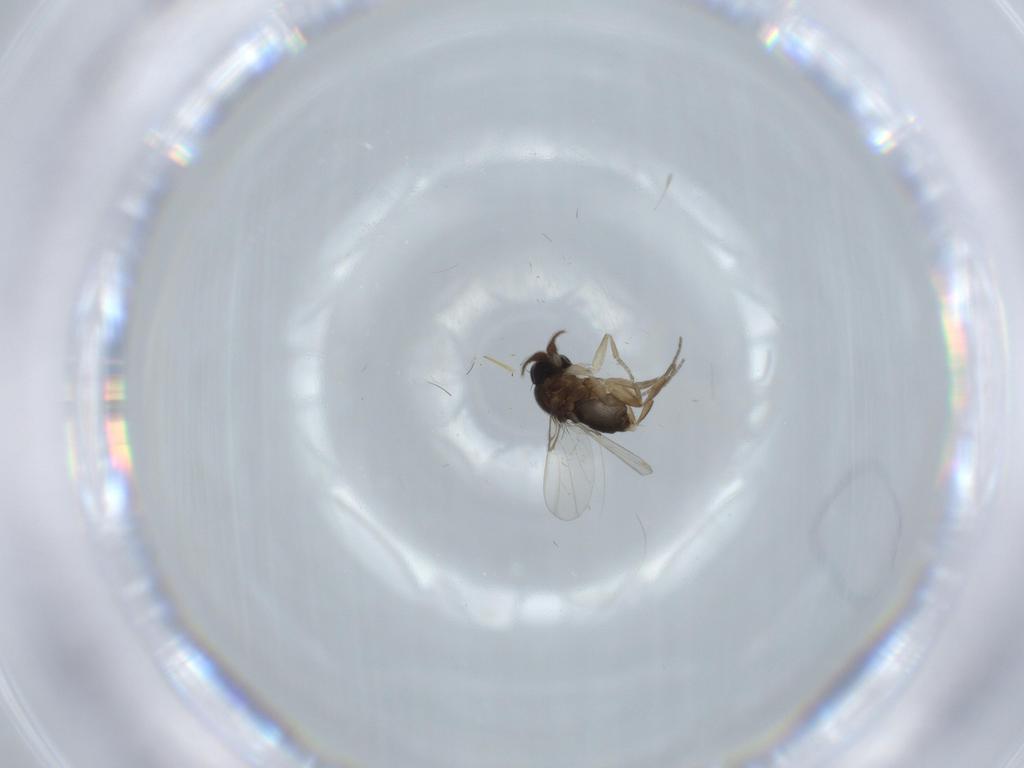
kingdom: Animalia
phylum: Arthropoda
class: Insecta
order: Diptera
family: Phoridae
